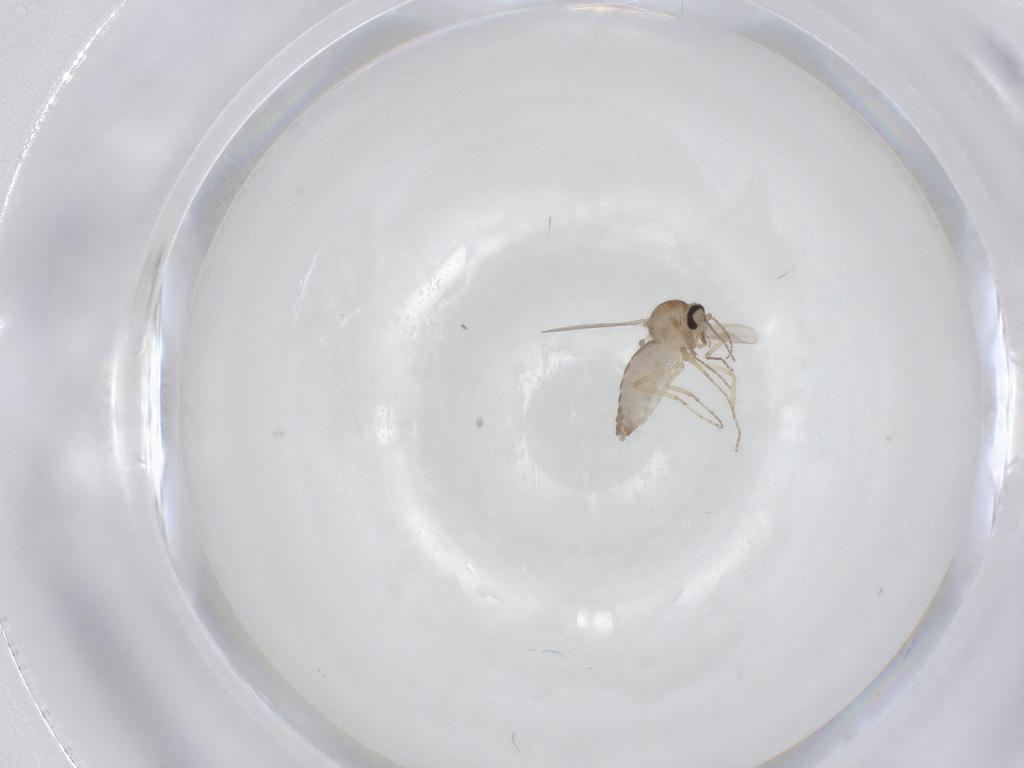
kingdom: Animalia
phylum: Arthropoda
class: Insecta
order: Diptera
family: Ceratopogonidae
